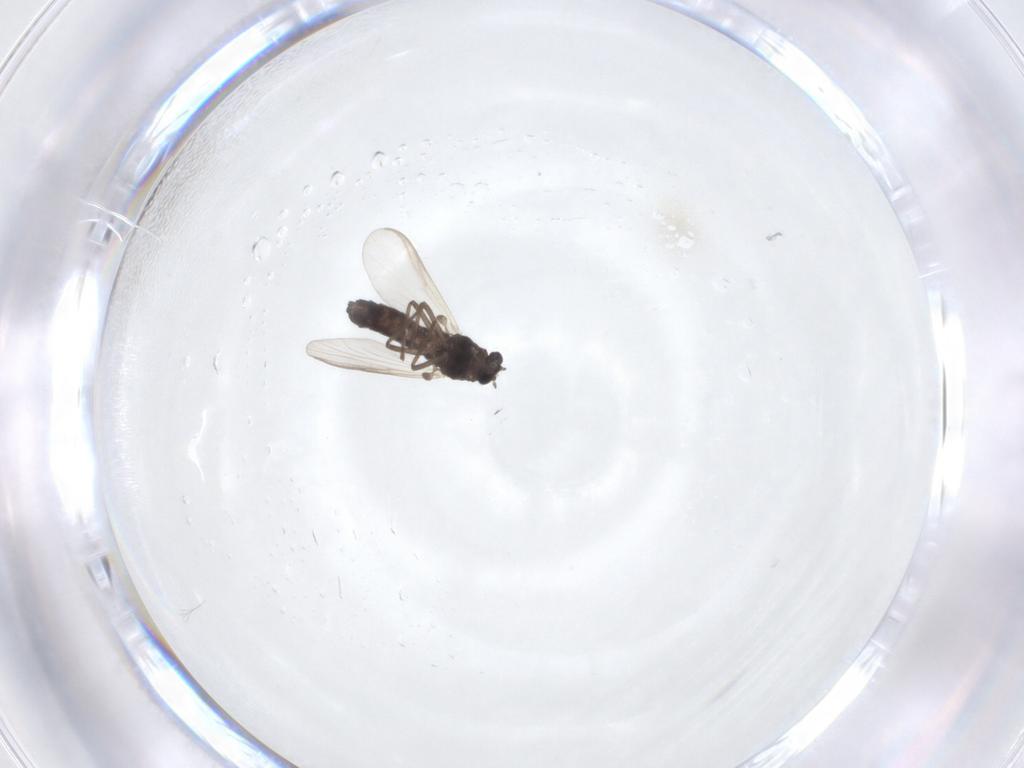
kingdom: Animalia
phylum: Arthropoda
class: Insecta
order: Diptera
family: Chironomidae
